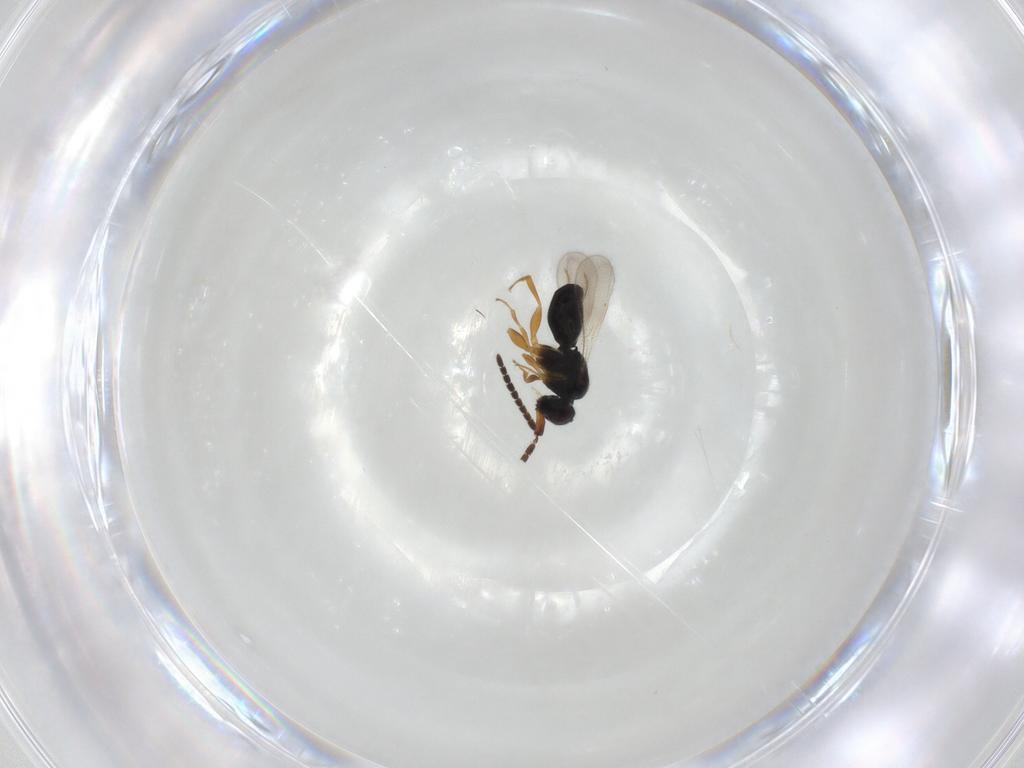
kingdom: Animalia
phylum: Arthropoda
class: Insecta
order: Hymenoptera
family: Ceraphronidae
